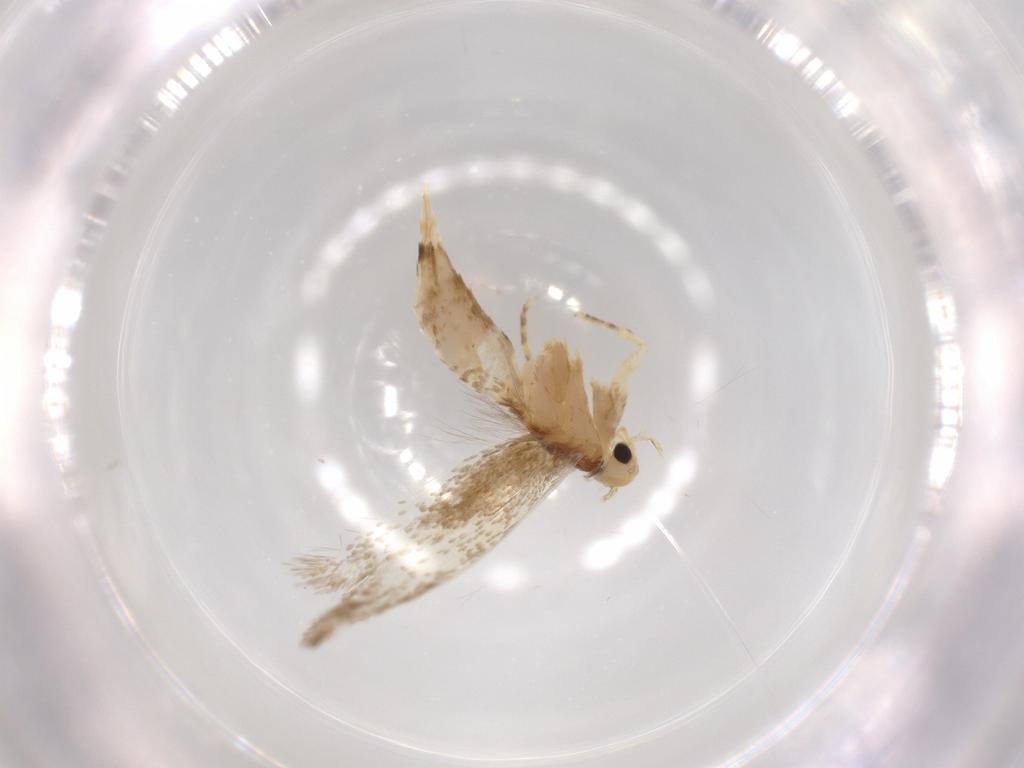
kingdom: Animalia
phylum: Arthropoda
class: Insecta
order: Lepidoptera
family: Tineidae
